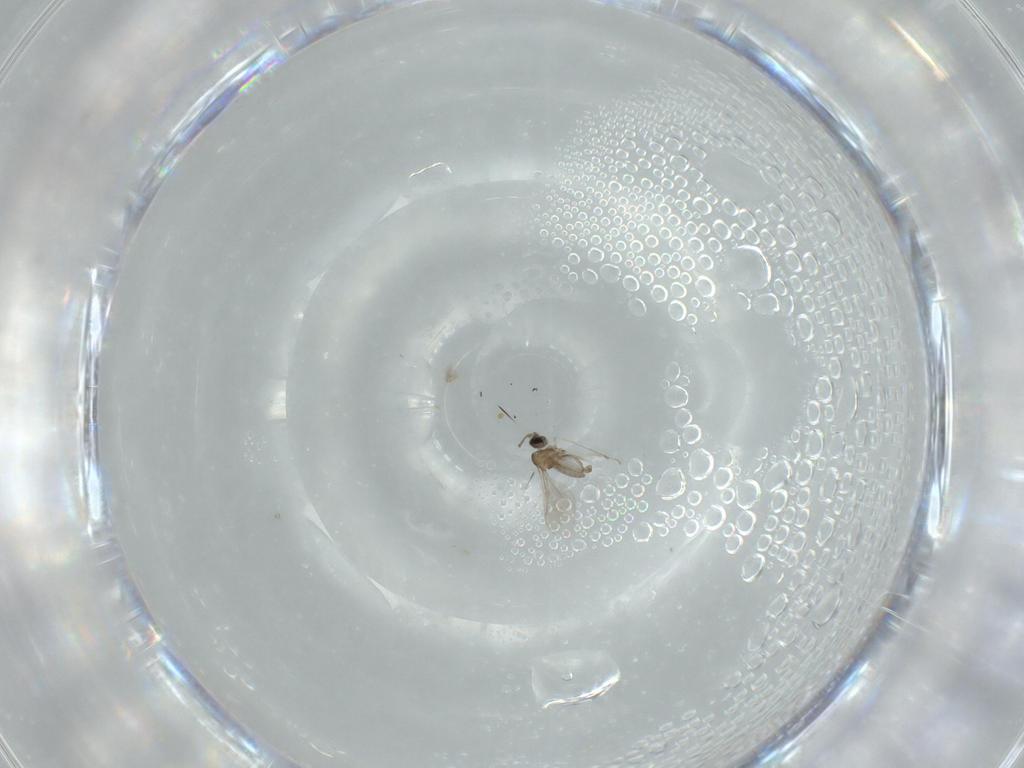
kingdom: Animalia
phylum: Arthropoda
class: Insecta
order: Diptera
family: Cecidomyiidae
